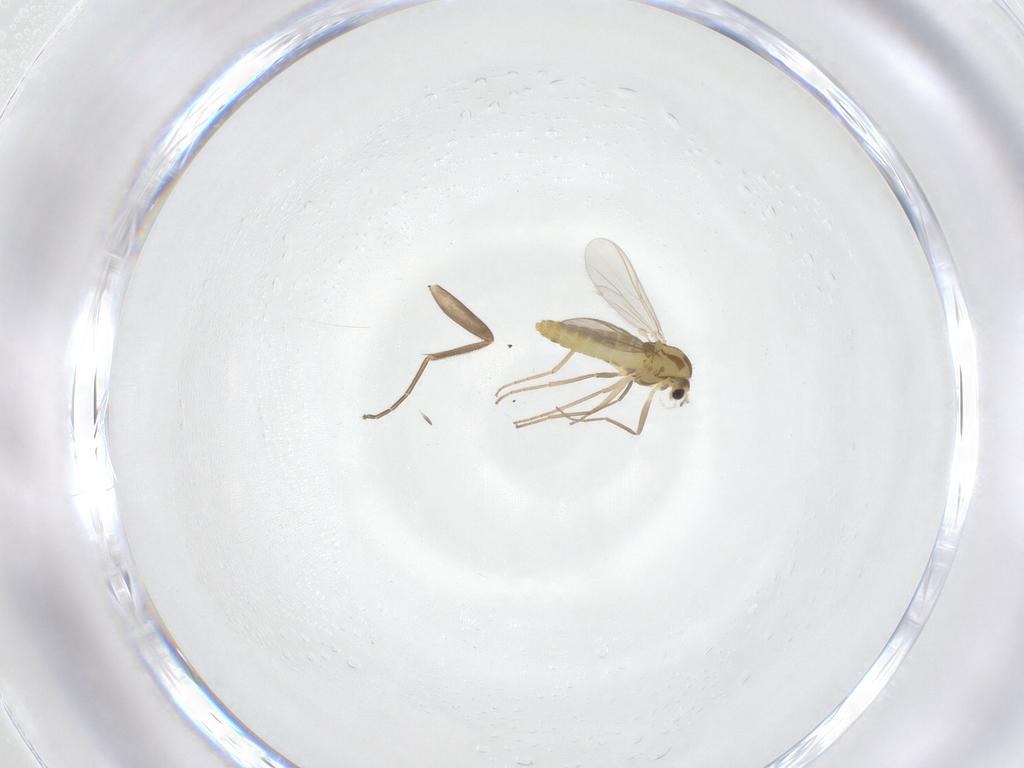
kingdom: Animalia
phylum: Arthropoda
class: Insecta
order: Diptera
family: Chironomidae
